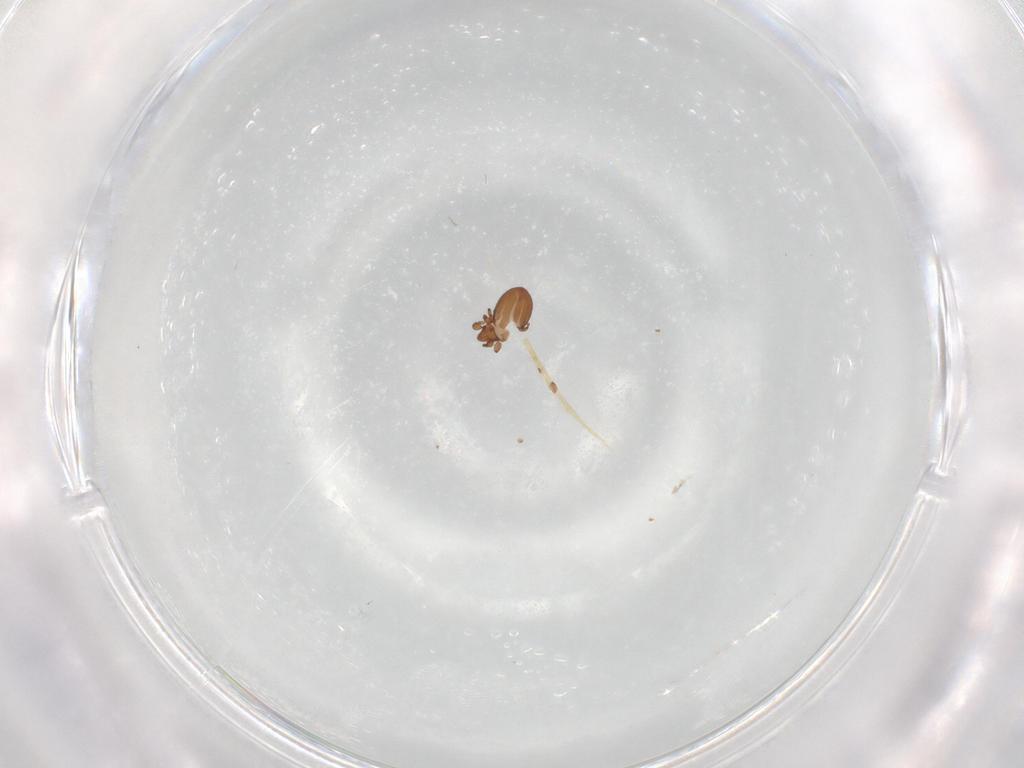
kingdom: Animalia
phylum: Arthropoda
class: Arachnida
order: Sarcoptiformes
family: Eremaeidae
